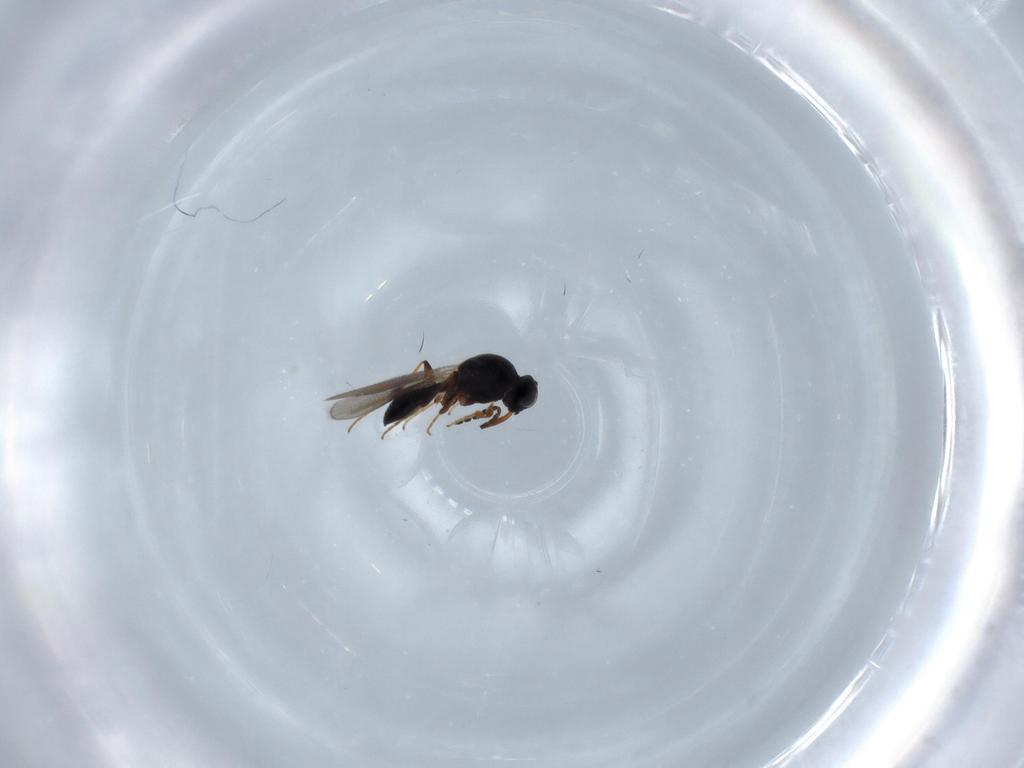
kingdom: Animalia
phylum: Arthropoda
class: Insecta
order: Hymenoptera
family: Platygastridae
